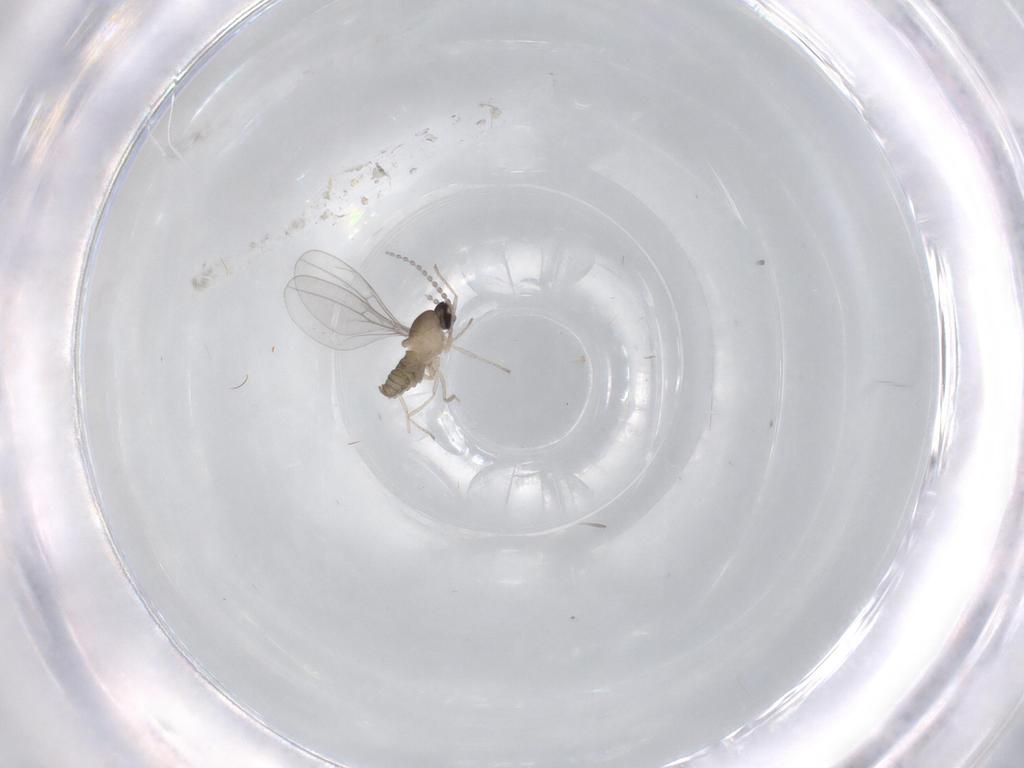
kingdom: Animalia
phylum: Arthropoda
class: Insecta
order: Diptera
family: Cecidomyiidae
